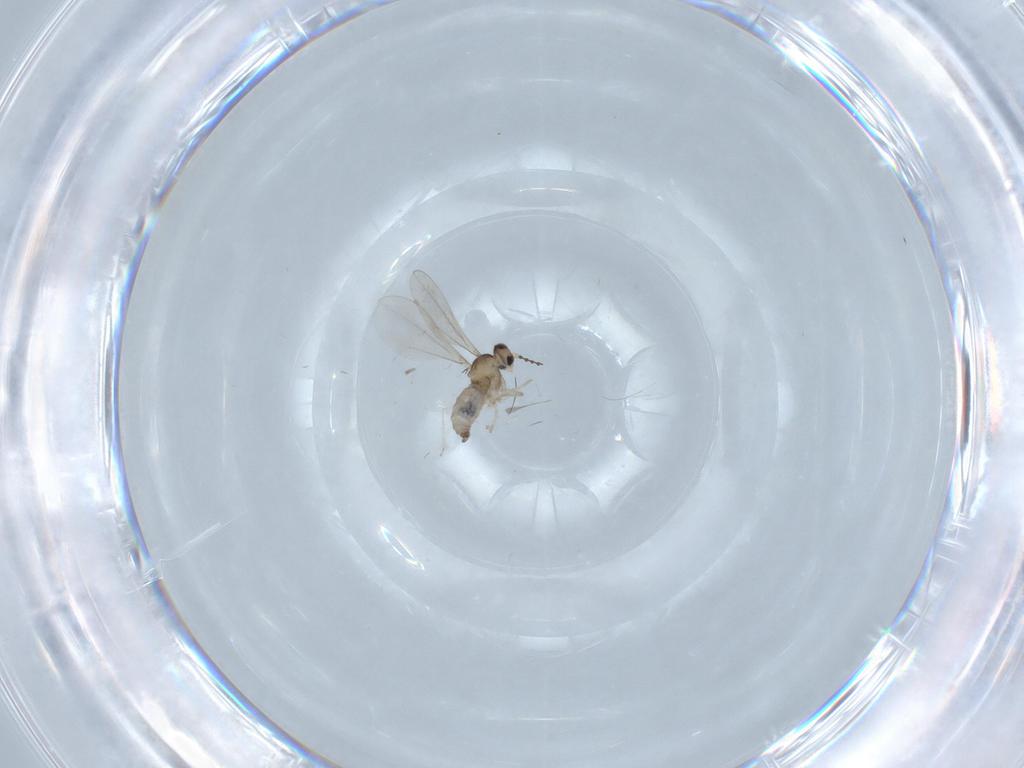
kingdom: Animalia
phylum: Arthropoda
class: Insecta
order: Diptera
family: Cecidomyiidae
